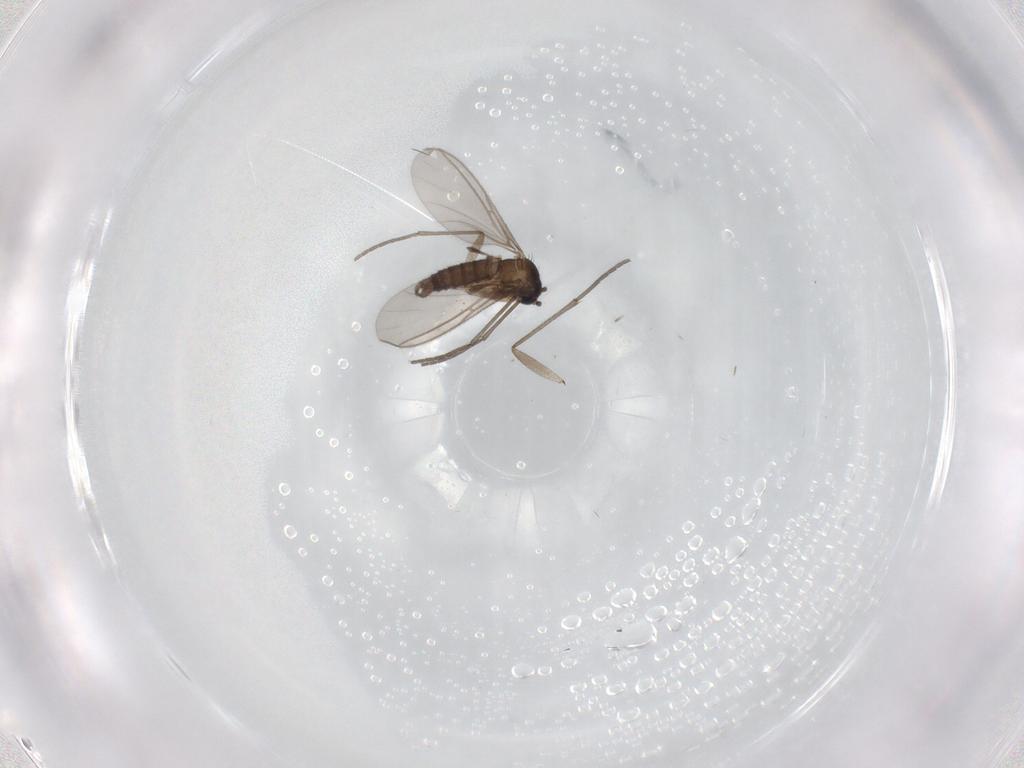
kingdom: Animalia
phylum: Arthropoda
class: Insecta
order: Diptera
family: Sciaridae
